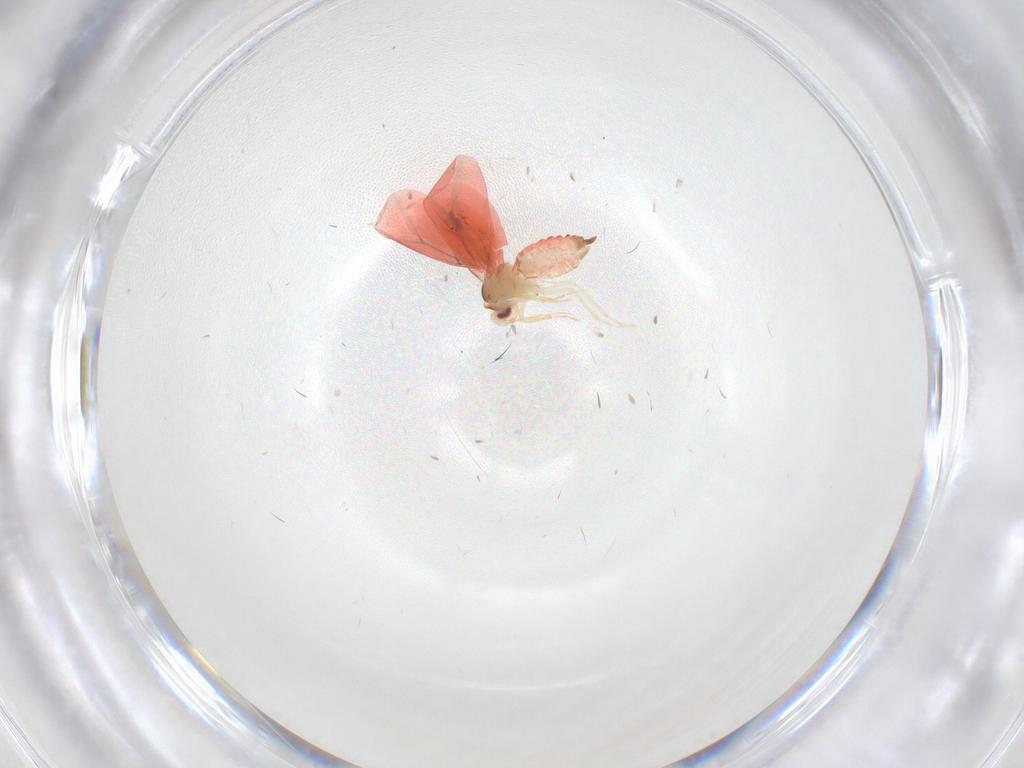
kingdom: Animalia
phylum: Arthropoda
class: Insecta
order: Hemiptera
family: Aleyrodidae
